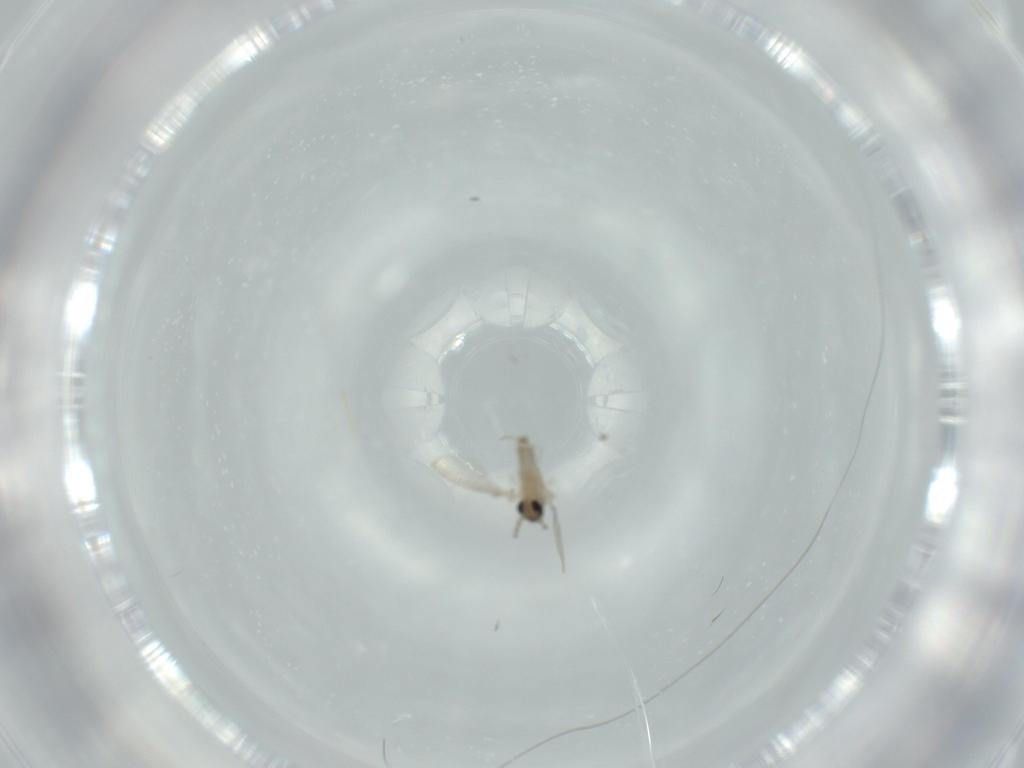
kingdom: Animalia
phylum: Arthropoda
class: Insecta
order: Diptera
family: Cecidomyiidae
